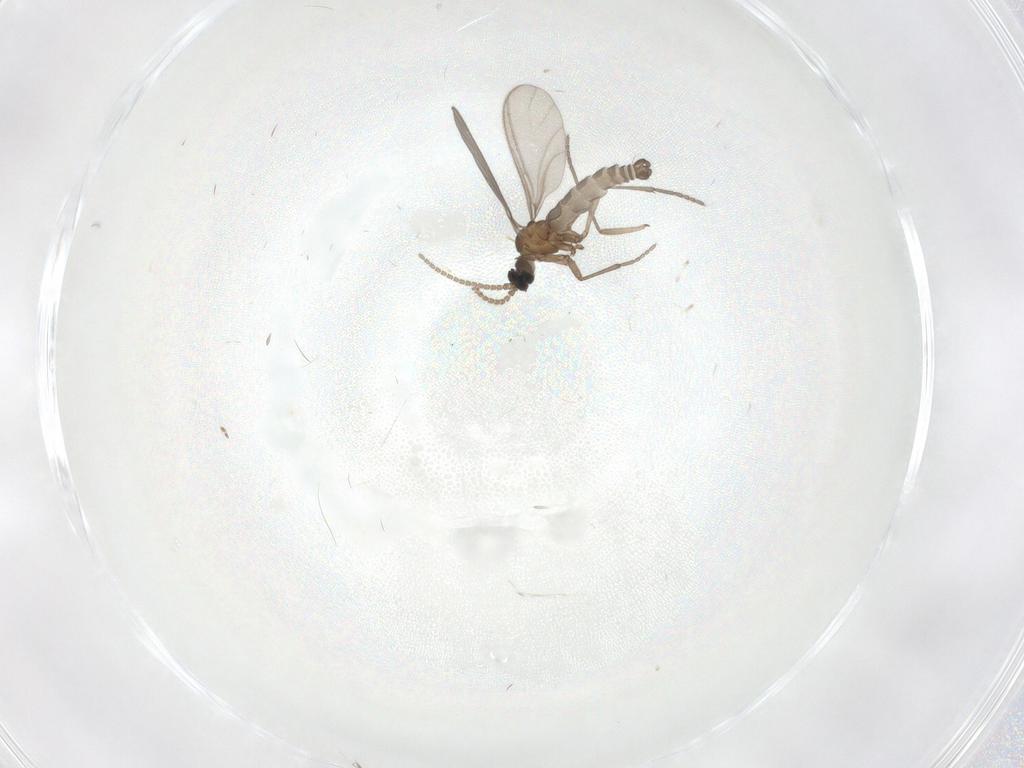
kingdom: Animalia
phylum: Arthropoda
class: Insecta
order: Diptera
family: Sciaridae
